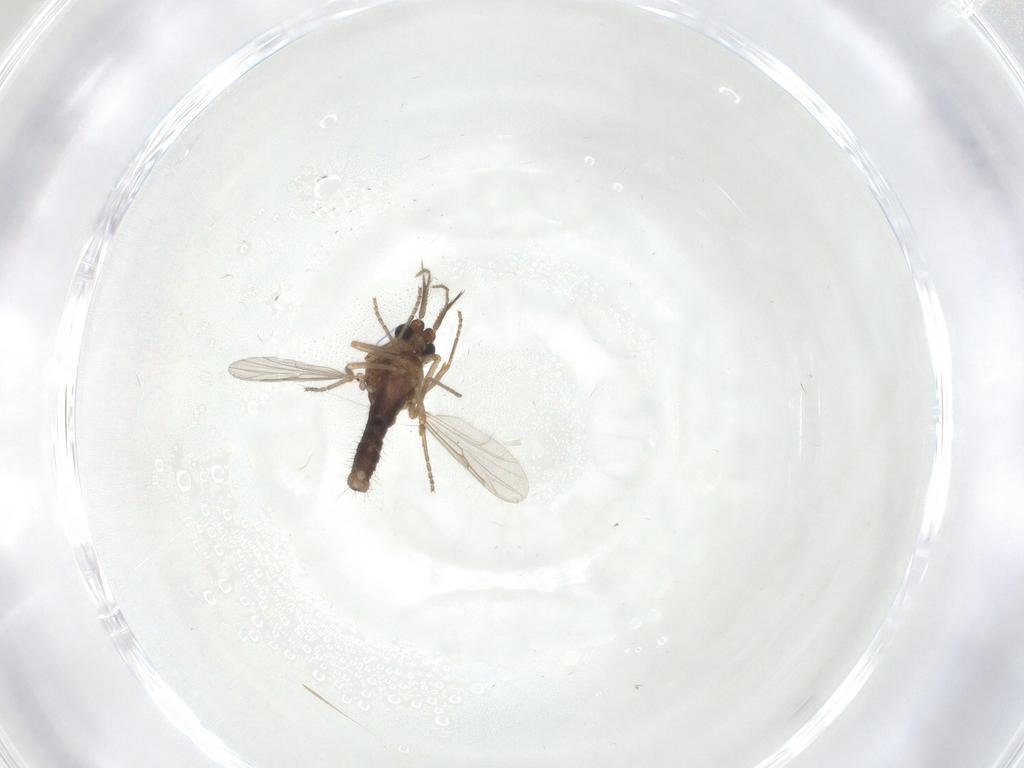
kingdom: Animalia
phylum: Arthropoda
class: Insecta
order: Diptera
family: Ceratopogonidae
